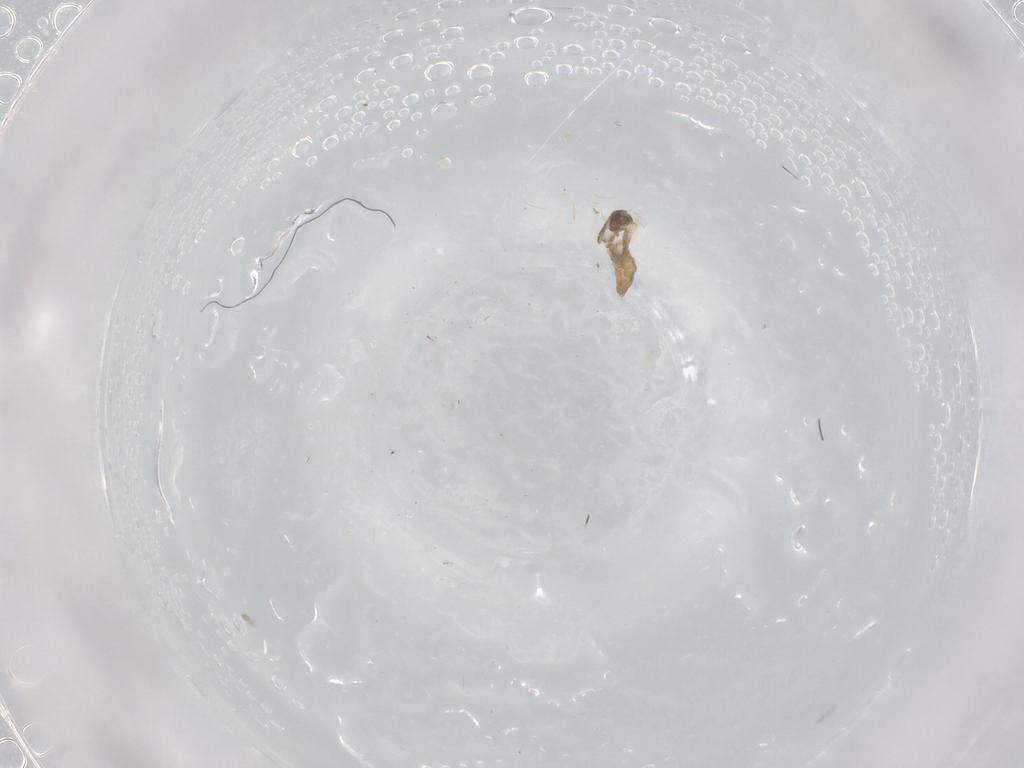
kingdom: Animalia
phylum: Arthropoda
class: Insecta
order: Diptera
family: Cecidomyiidae
